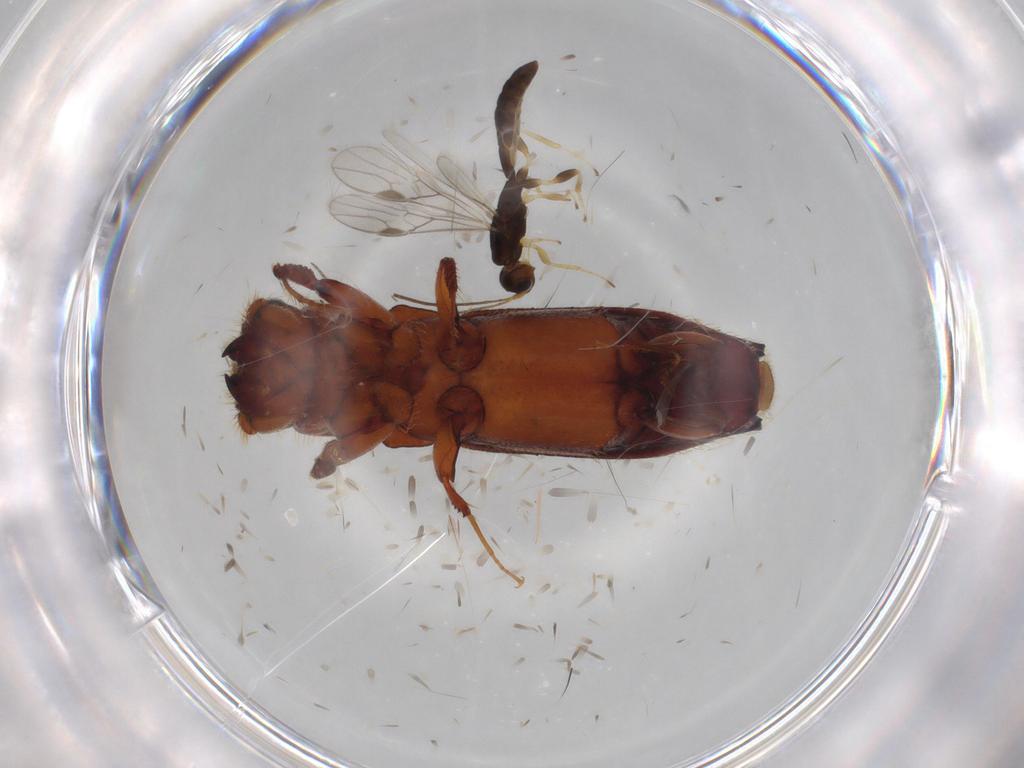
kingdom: Animalia
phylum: Arthropoda
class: Insecta
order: Coleoptera
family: Curculionidae
